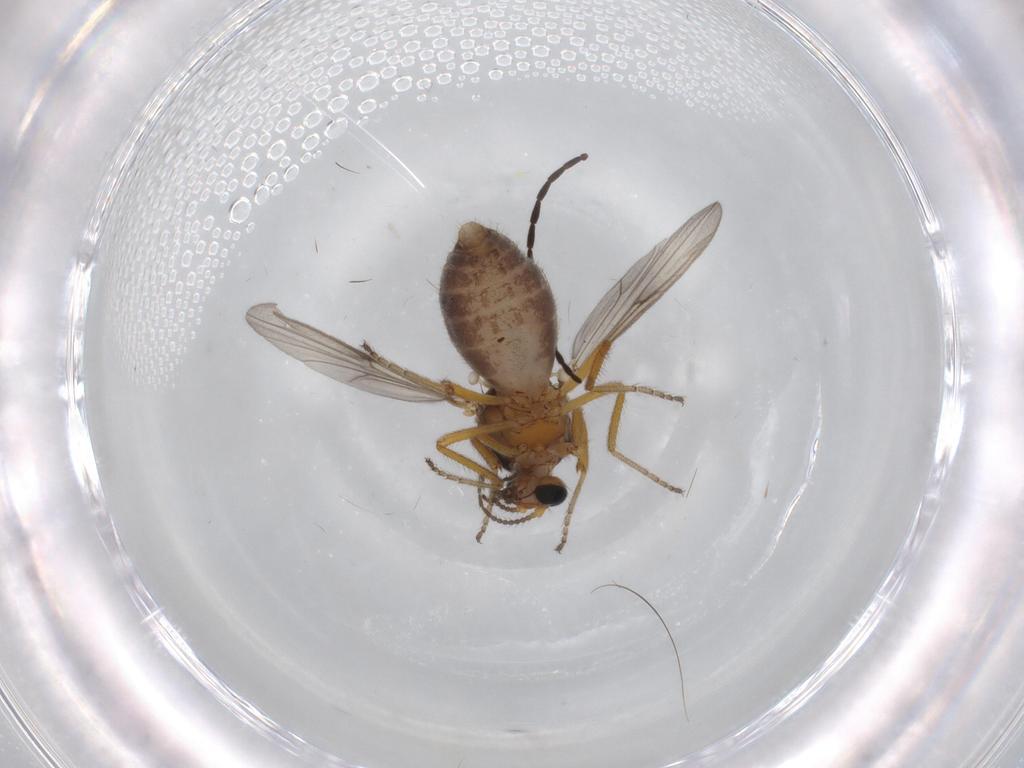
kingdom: Animalia
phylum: Arthropoda
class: Insecta
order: Diptera
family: Ceratopogonidae
